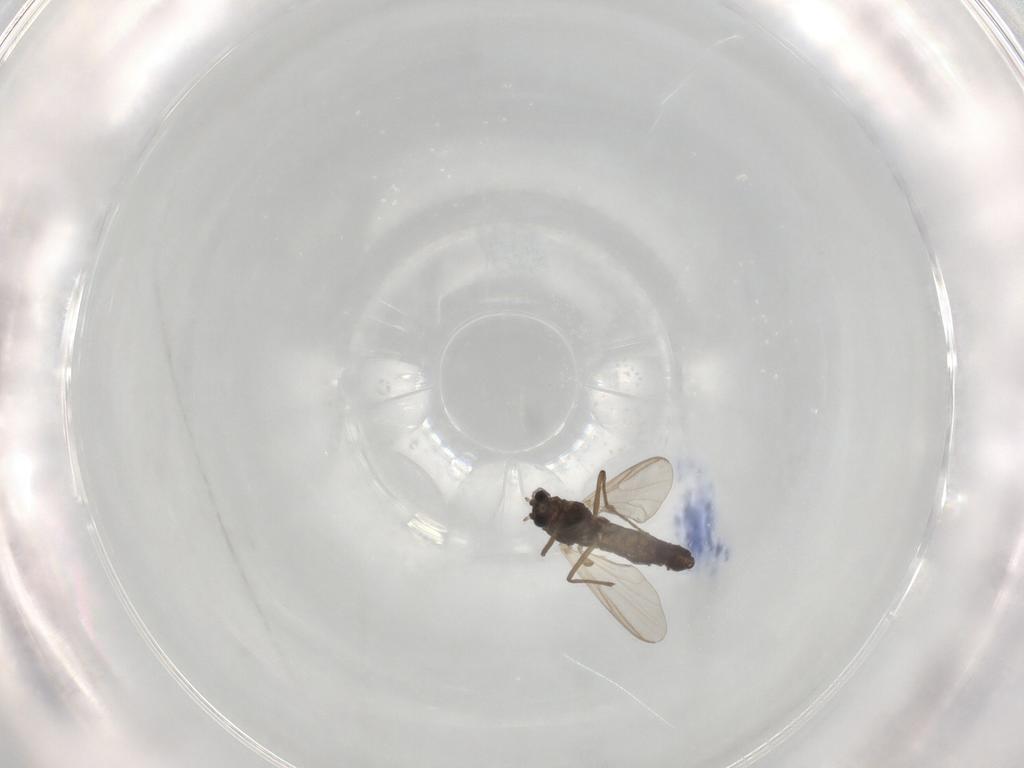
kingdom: Animalia
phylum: Arthropoda
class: Insecta
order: Diptera
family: Chironomidae
